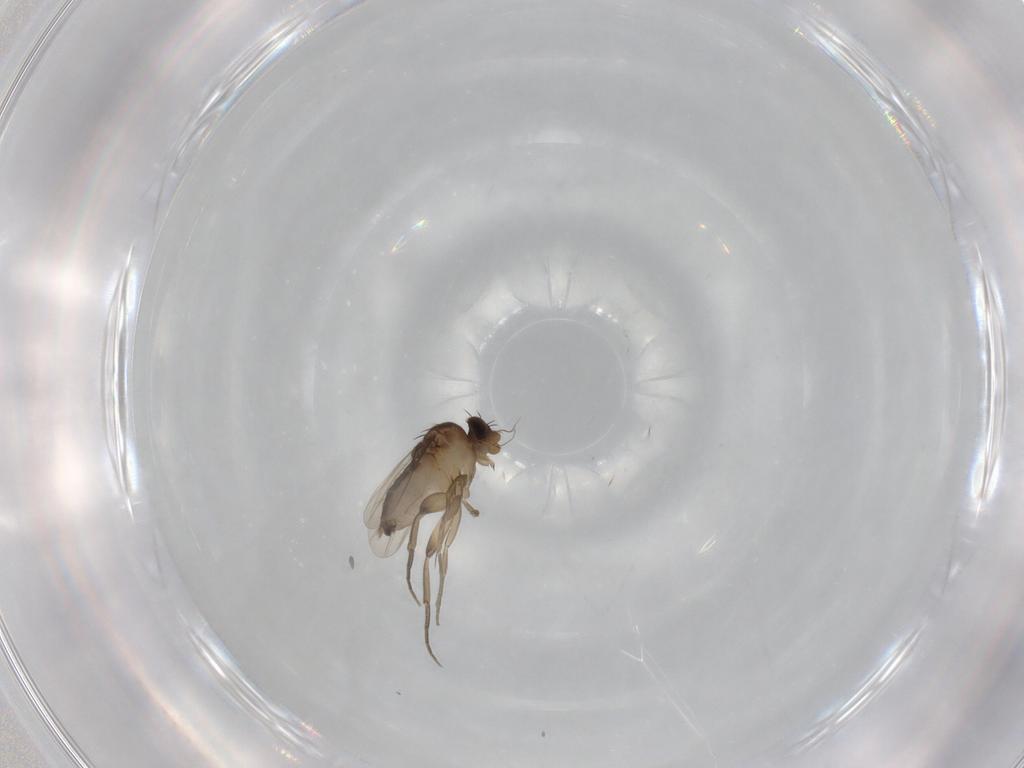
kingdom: Animalia
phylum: Arthropoda
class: Insecta
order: Diptera
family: Phoridae
